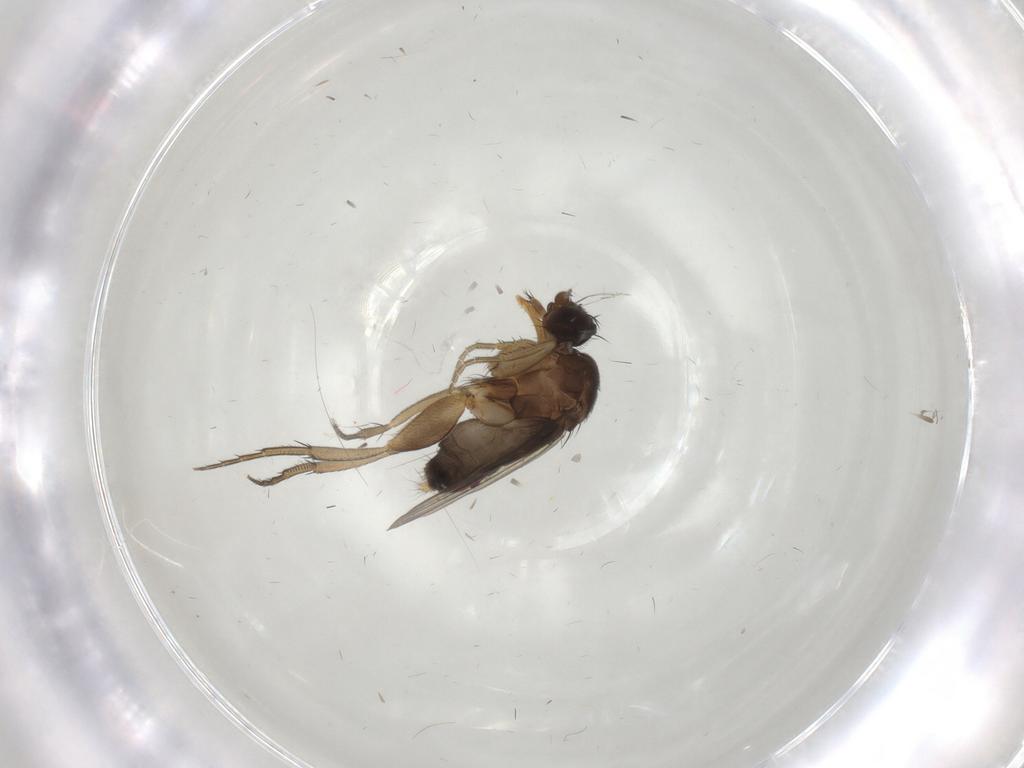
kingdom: Animalia
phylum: Arthropoda
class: Insecta
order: Diptera
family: Phoridae
